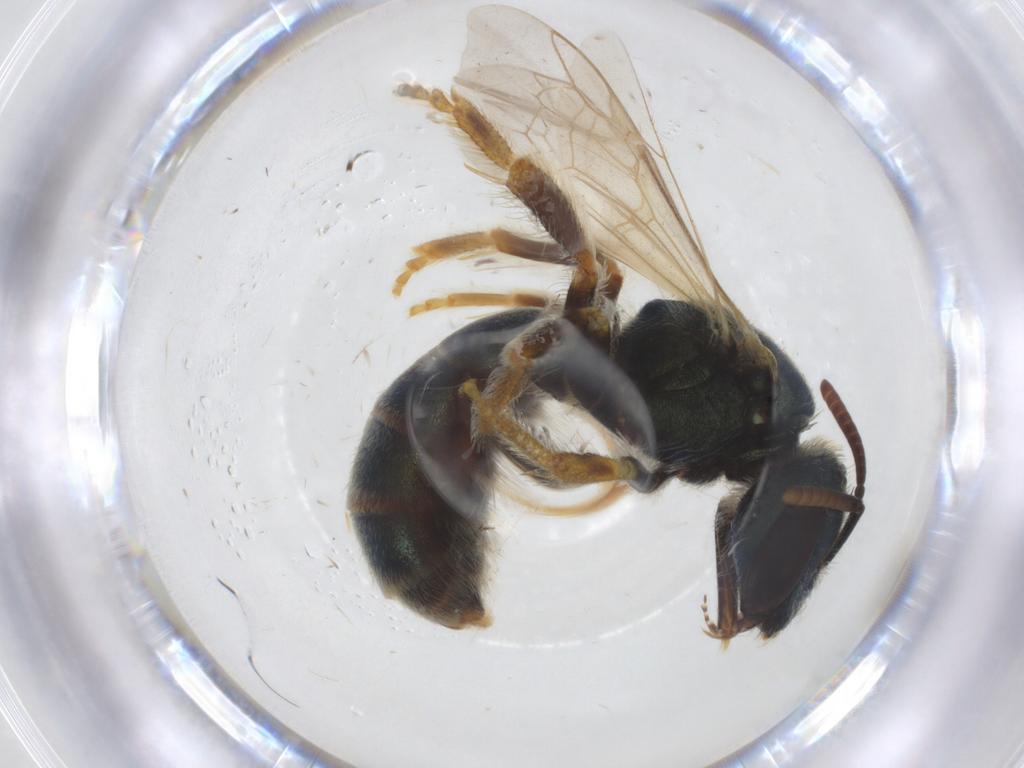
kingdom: Animalia
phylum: Arthropoda
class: Insecta
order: Hymenoptera
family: Halictidae
